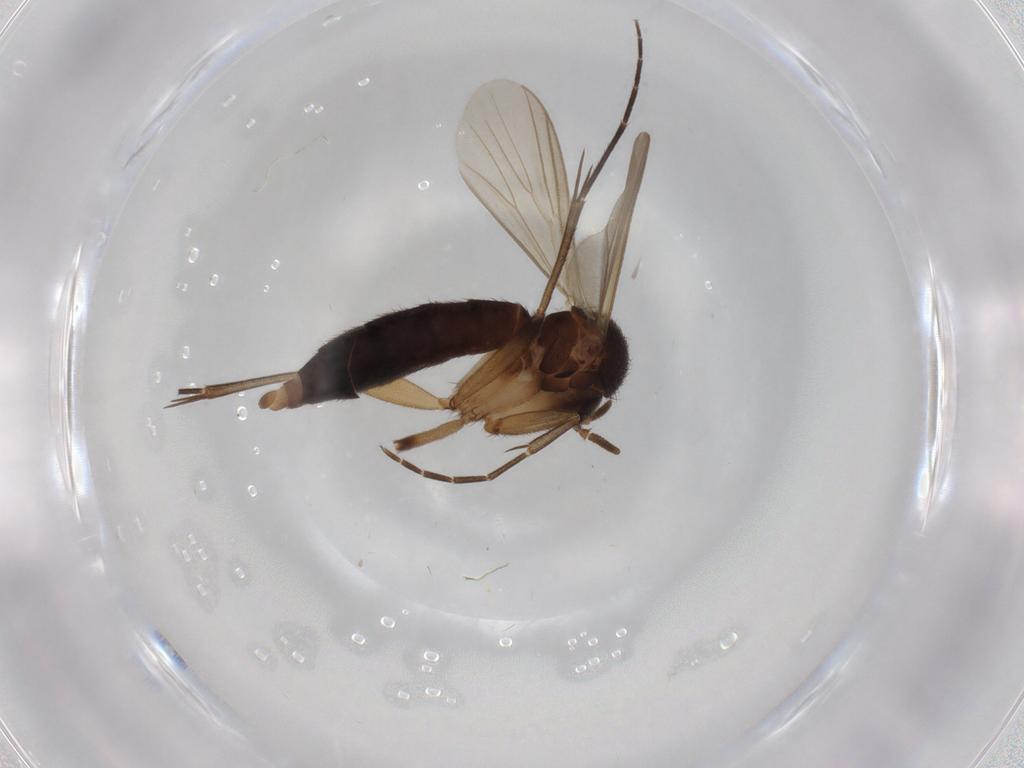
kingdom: Animalia
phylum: Arthropoda
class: Insecta
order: Diptera
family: Mycetophilidae
